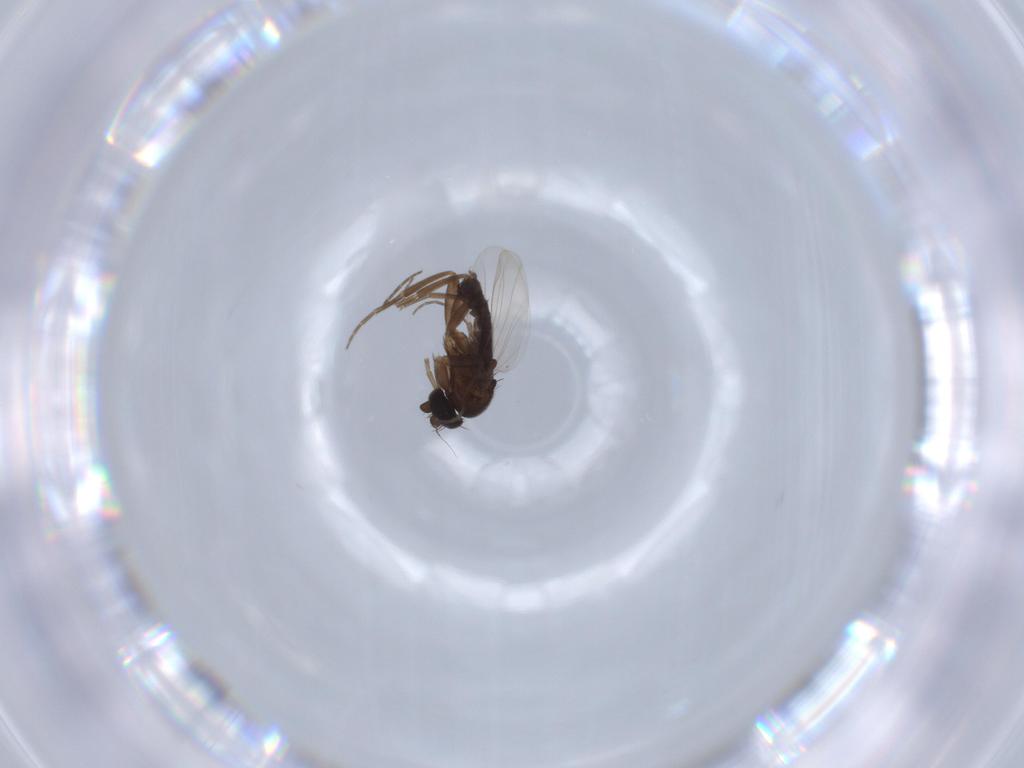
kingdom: Animalia
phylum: Arthropoda
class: Insecta
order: Diptera
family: Phoridae
